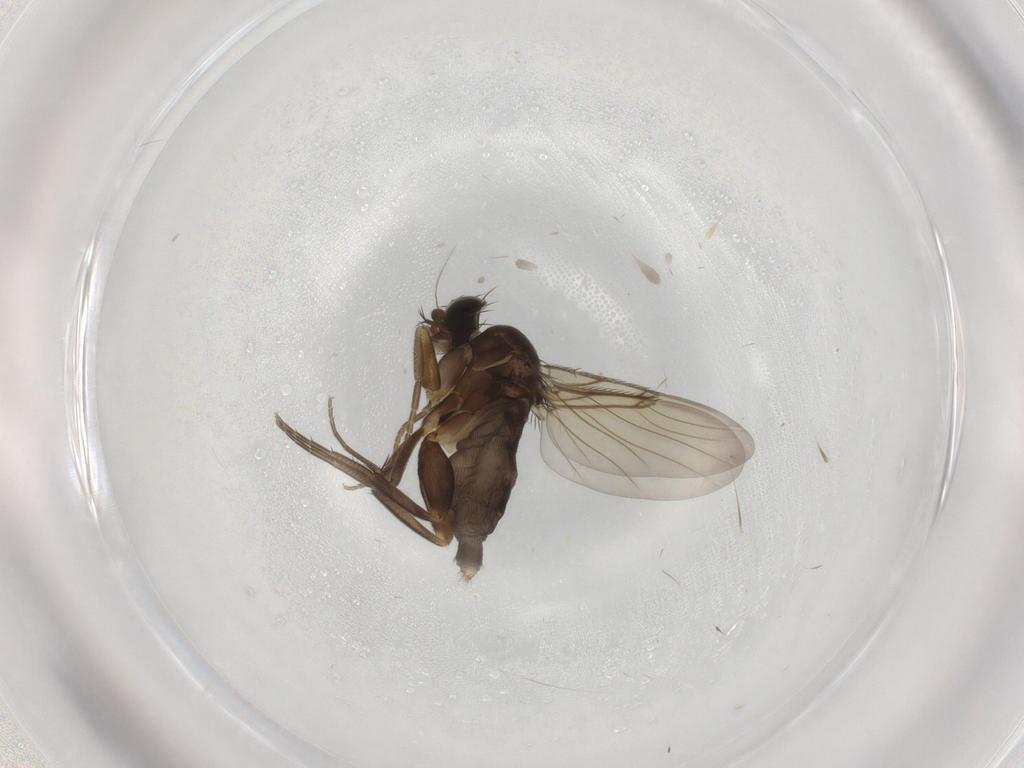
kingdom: Animalia
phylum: Arthropoda
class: Insecta
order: Diptera
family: Phoridae
